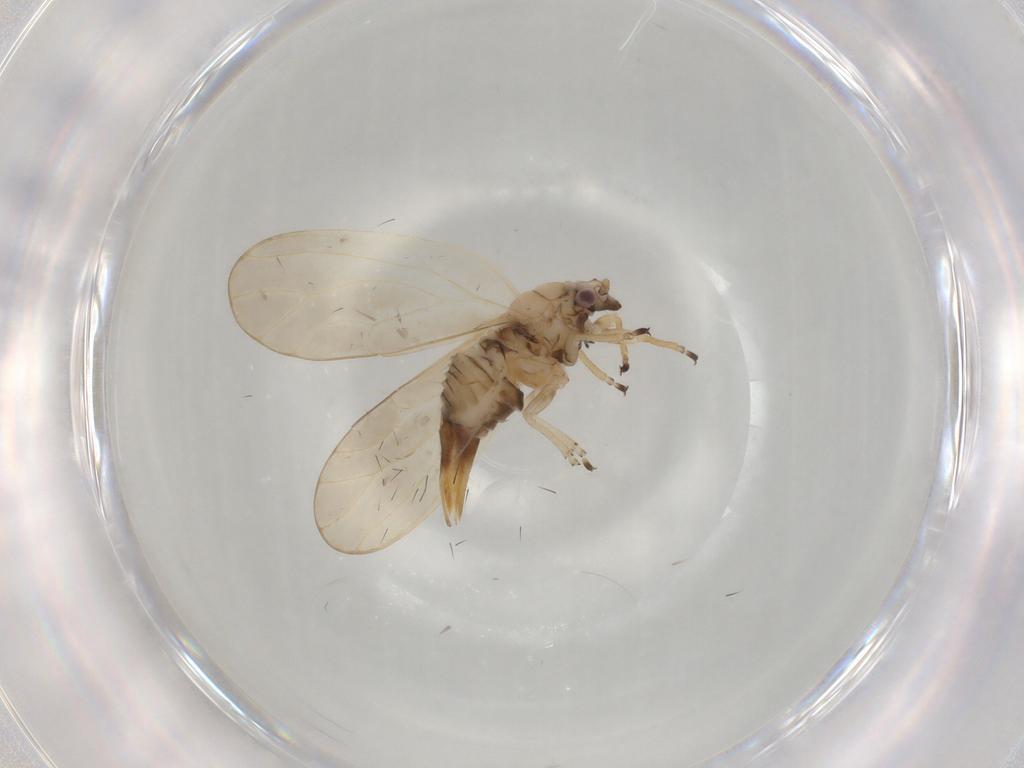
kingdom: Animalia
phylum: Arthropoda
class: Insecta
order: Hemiptera
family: Cicadellidae
